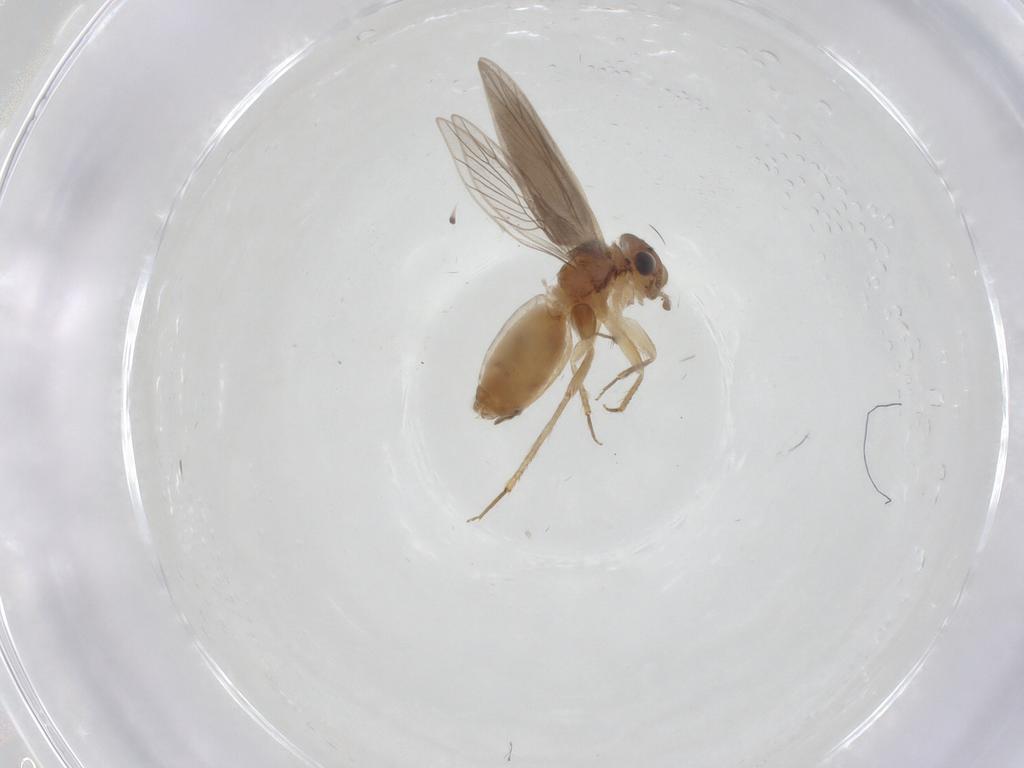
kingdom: Animalia
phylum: Arthropoda
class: Insecta
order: Psocodea
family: Lepidopsocidae
